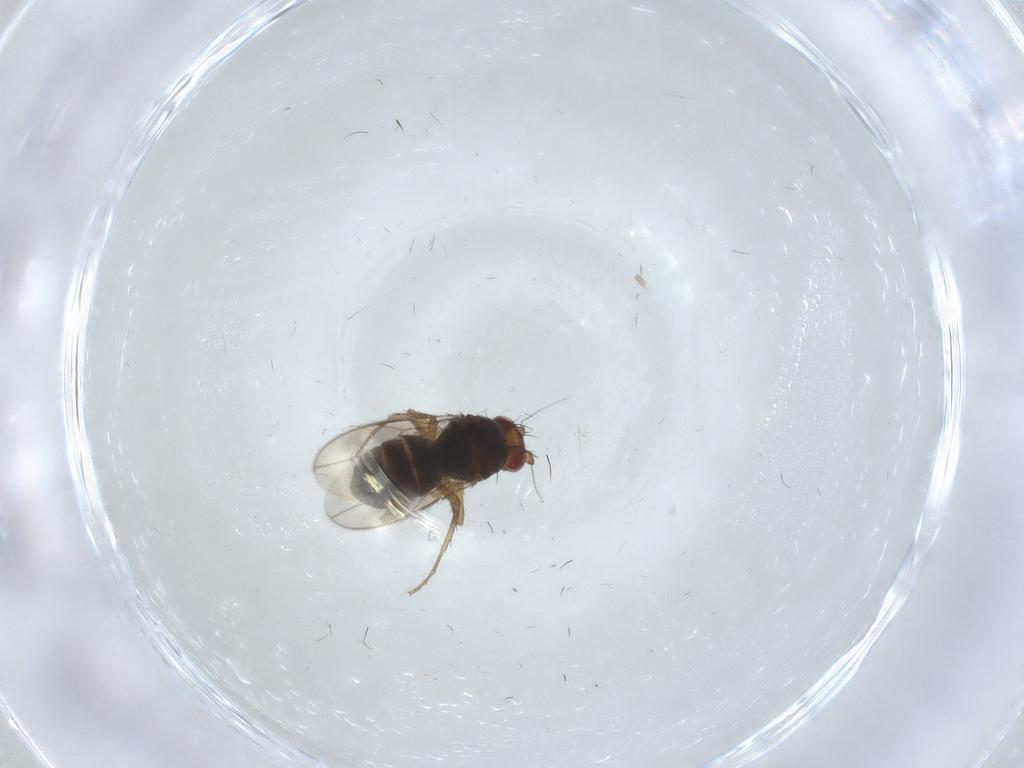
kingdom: Animalia
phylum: Arthropoda
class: Insecta
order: Diptera
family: Sphaeroceridae
